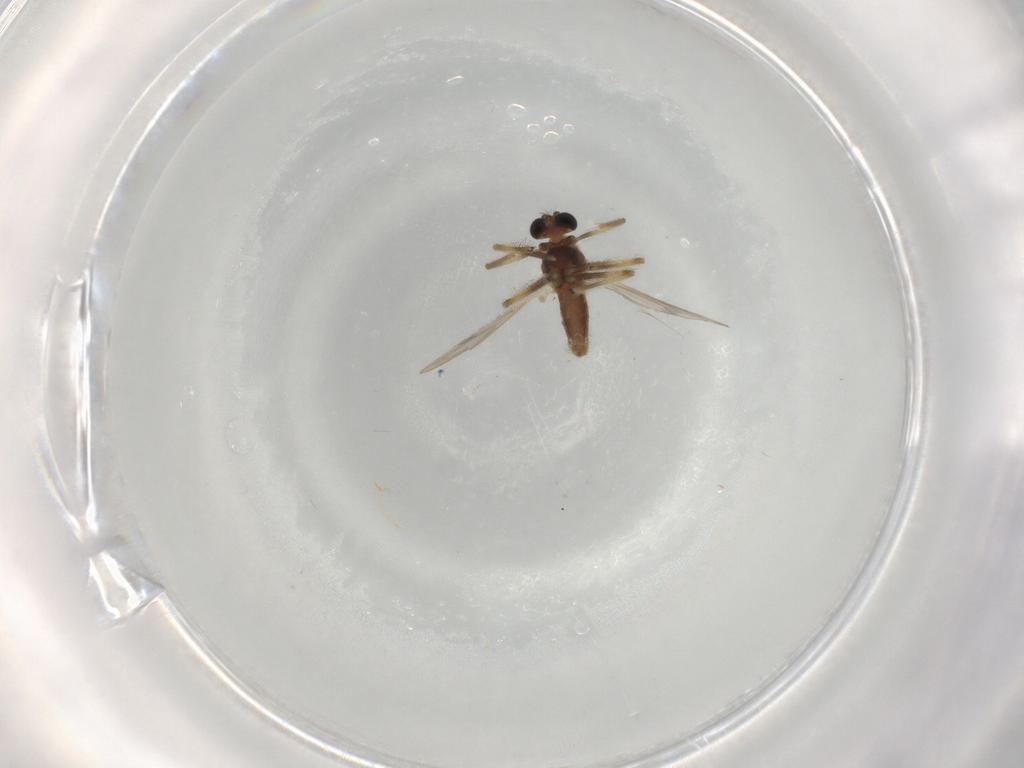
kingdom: Animalia
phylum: Arthropoda
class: Insecta
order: Diptera
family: Chironomidae
